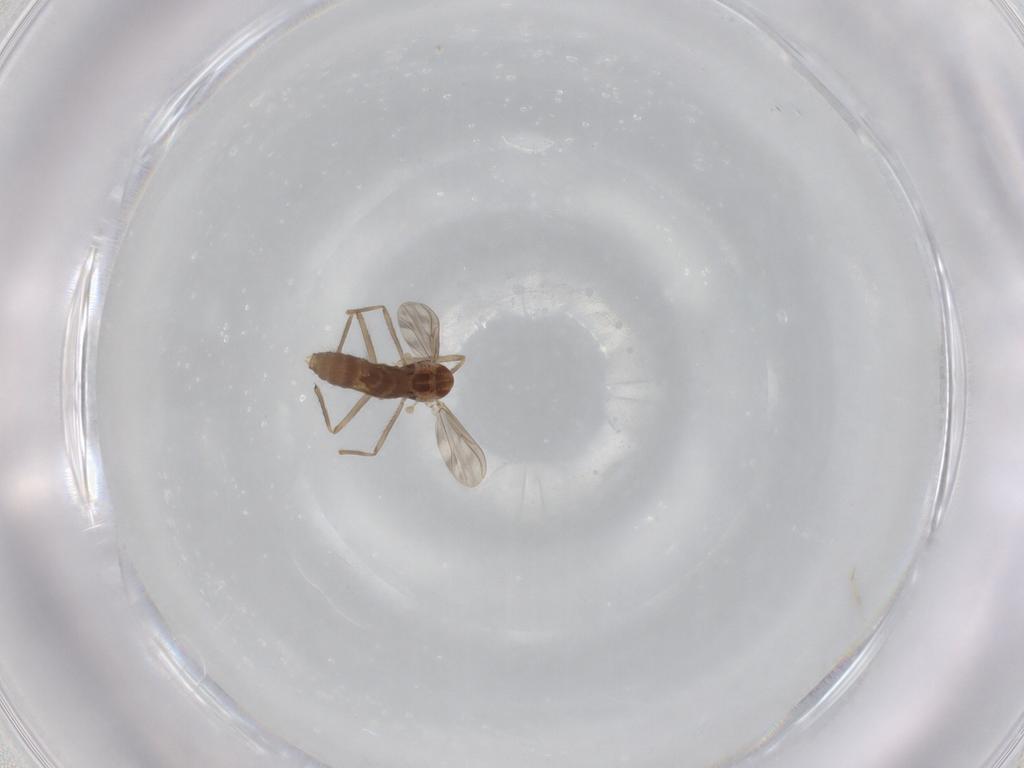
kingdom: Animalia
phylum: Arthropoda
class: Insecta
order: Diptera
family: Chironomidae
